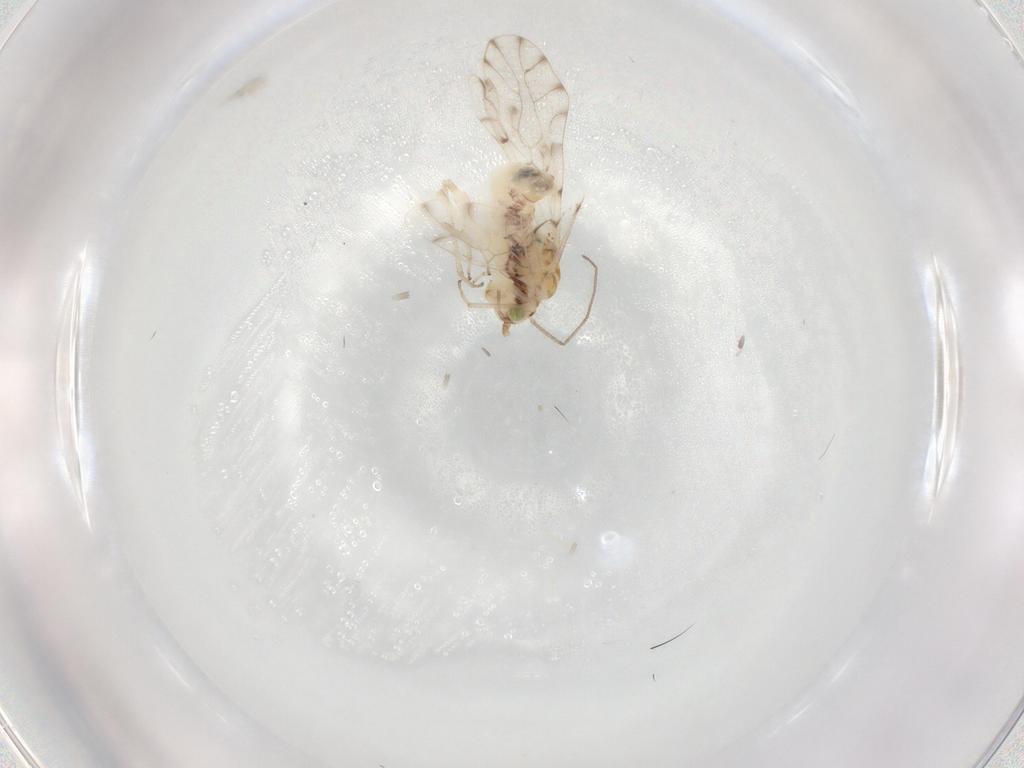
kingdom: Animalia
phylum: Arthropoda
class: Insecta
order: Psocodea
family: Ectopsocidae
